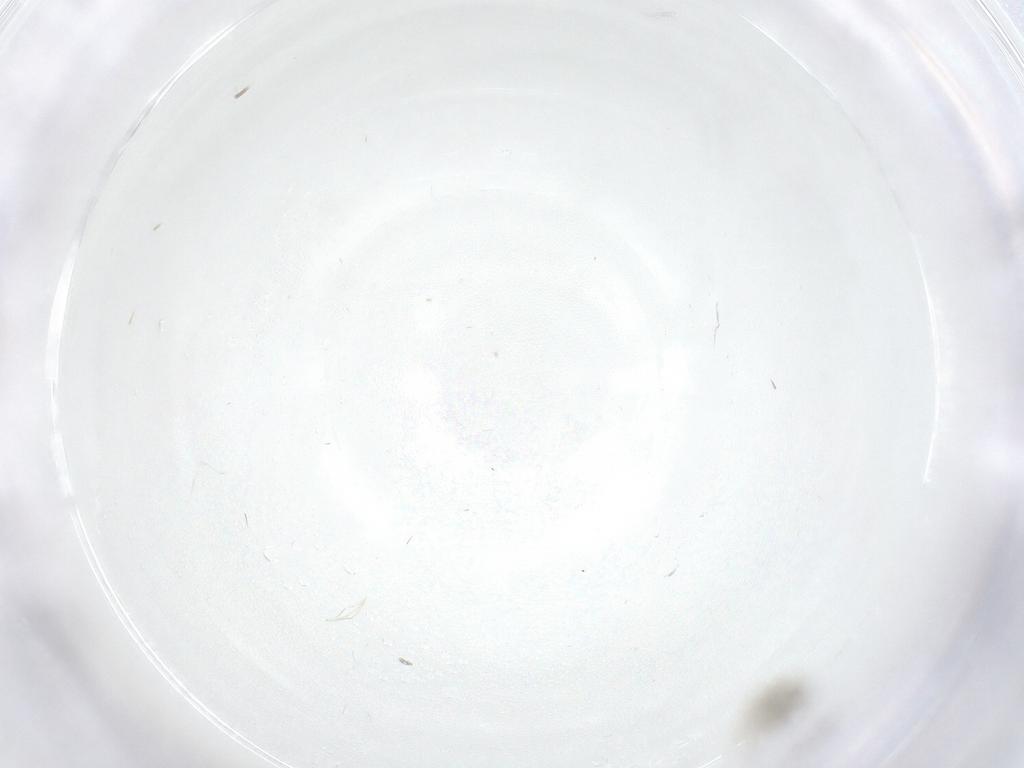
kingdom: Animalia
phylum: Arthropoda
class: Insecta
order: Diptera
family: Chironomidae
